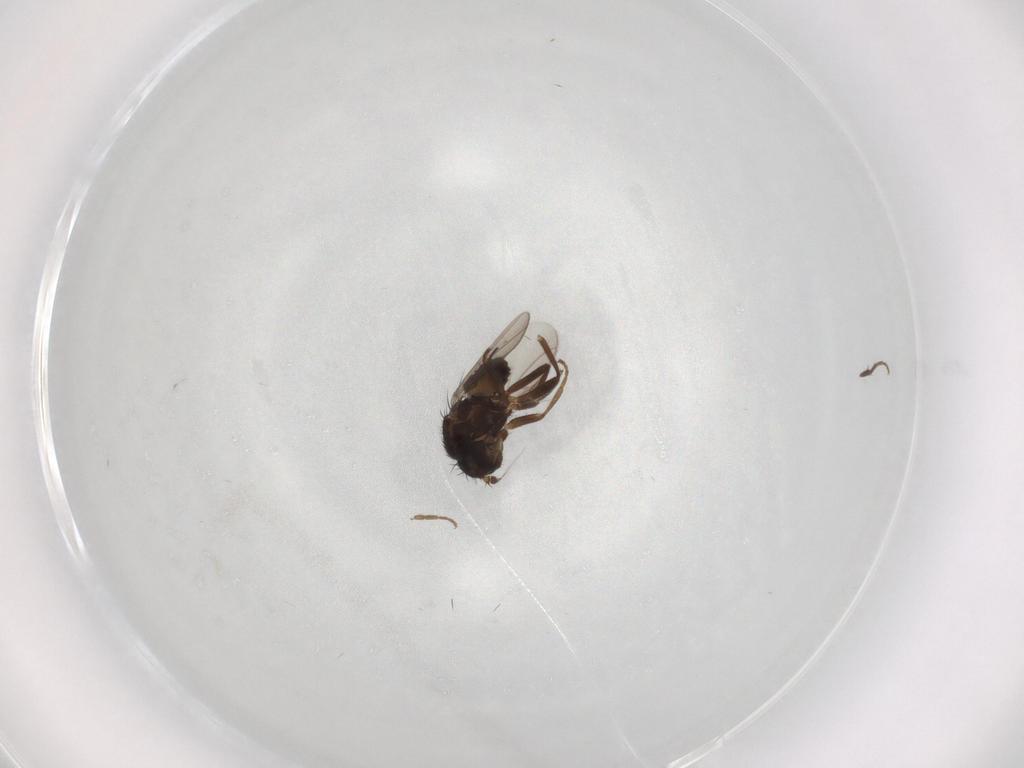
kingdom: Animalia
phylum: Arthropoda
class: Insecta
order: Diptera
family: Sphaeroceridae
